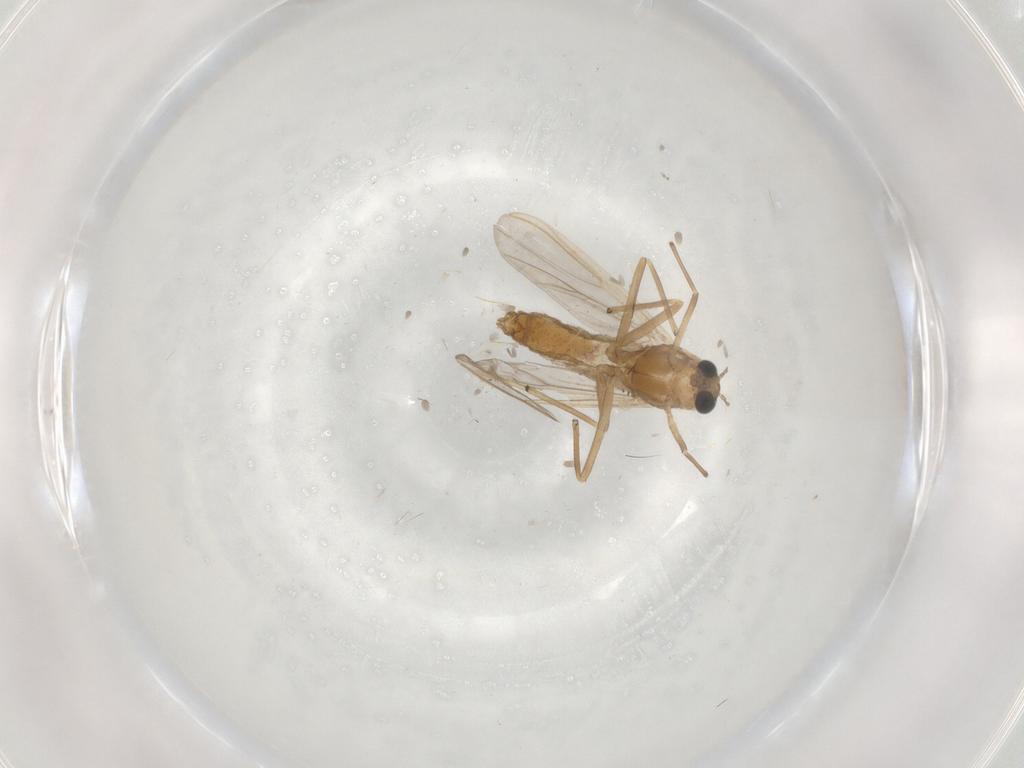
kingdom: Animalia
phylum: Arthropoda
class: Insecta
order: Diptera
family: Chironomidae
